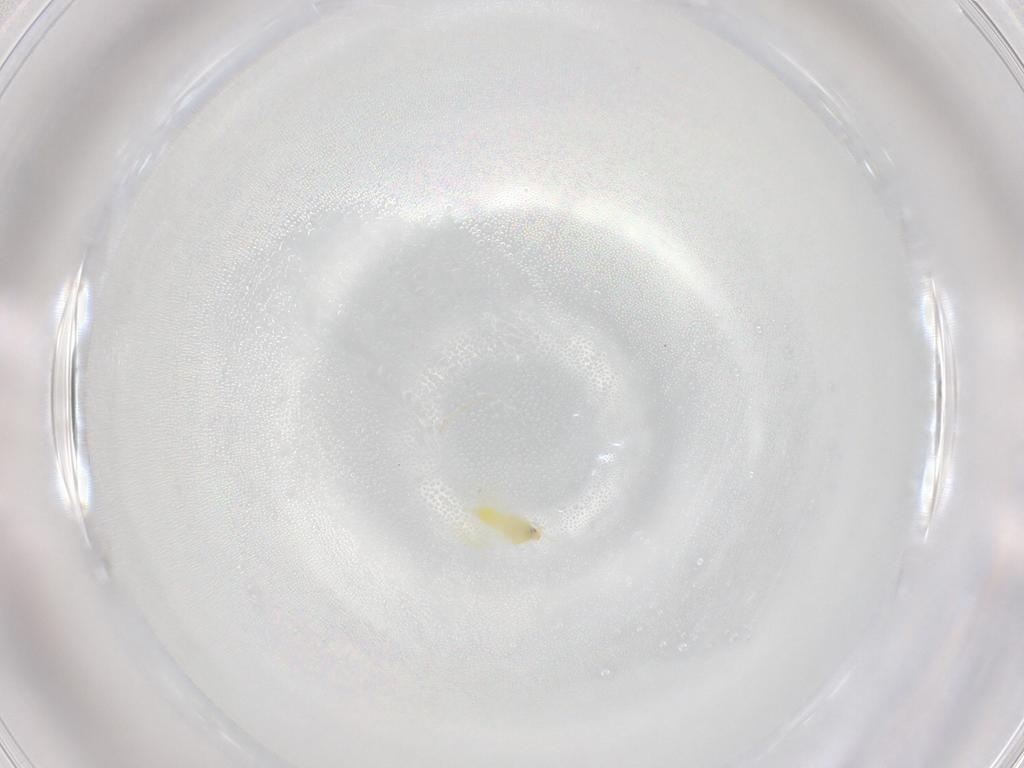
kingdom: Animalia
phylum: Arthropoda
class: Insecta
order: Hemiptera
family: Aleyrodidae
